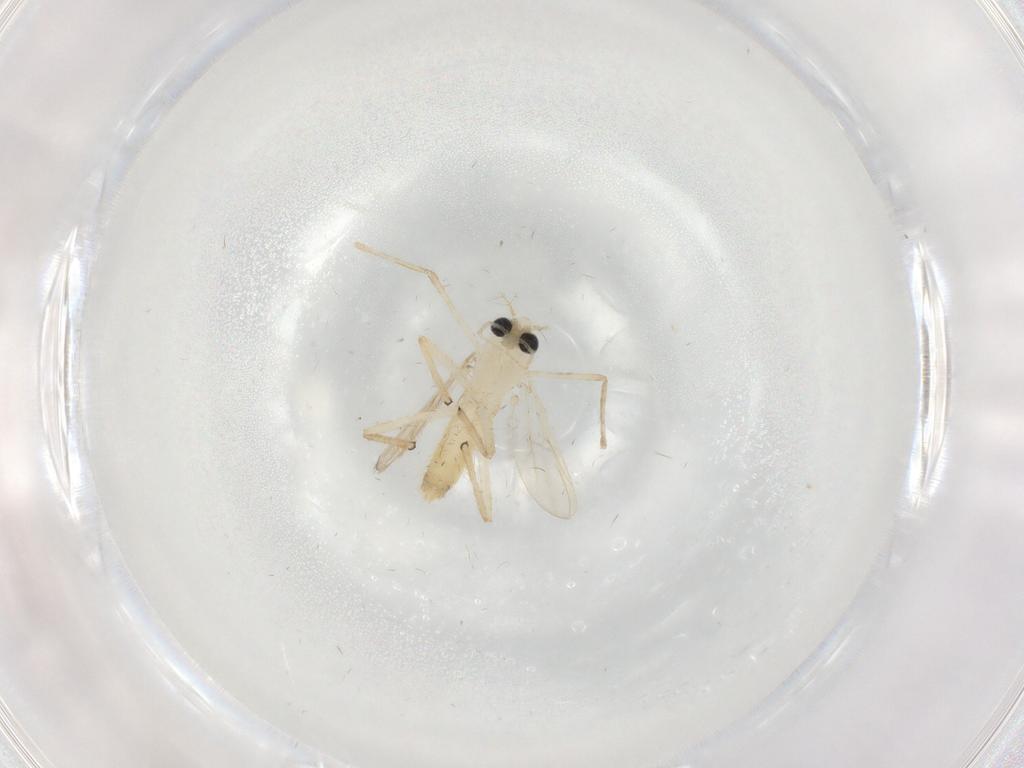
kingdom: Animalia
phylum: Arthropoda
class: Insecta
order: Diptera
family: Chironomidae
